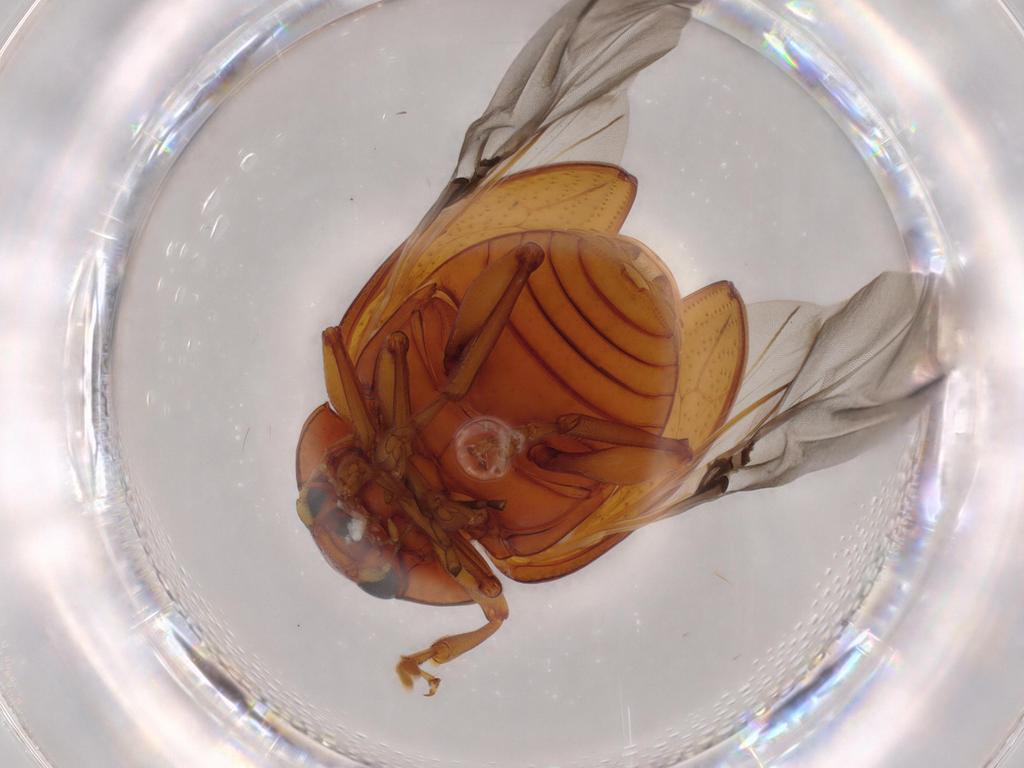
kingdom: Animalia
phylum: Arthropoda
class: Insecta
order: Coleoptera
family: Chrysomelidae
